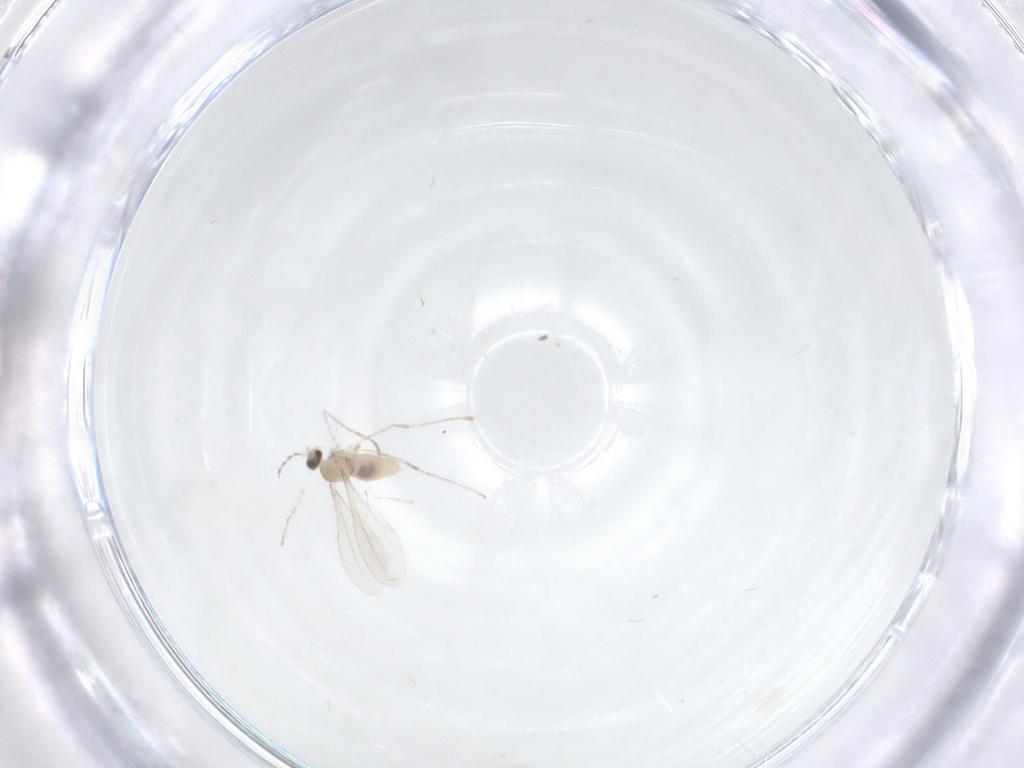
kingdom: Animalia
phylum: Arthropoda
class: Insecta
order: Diptera
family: Cecidomyiidae
